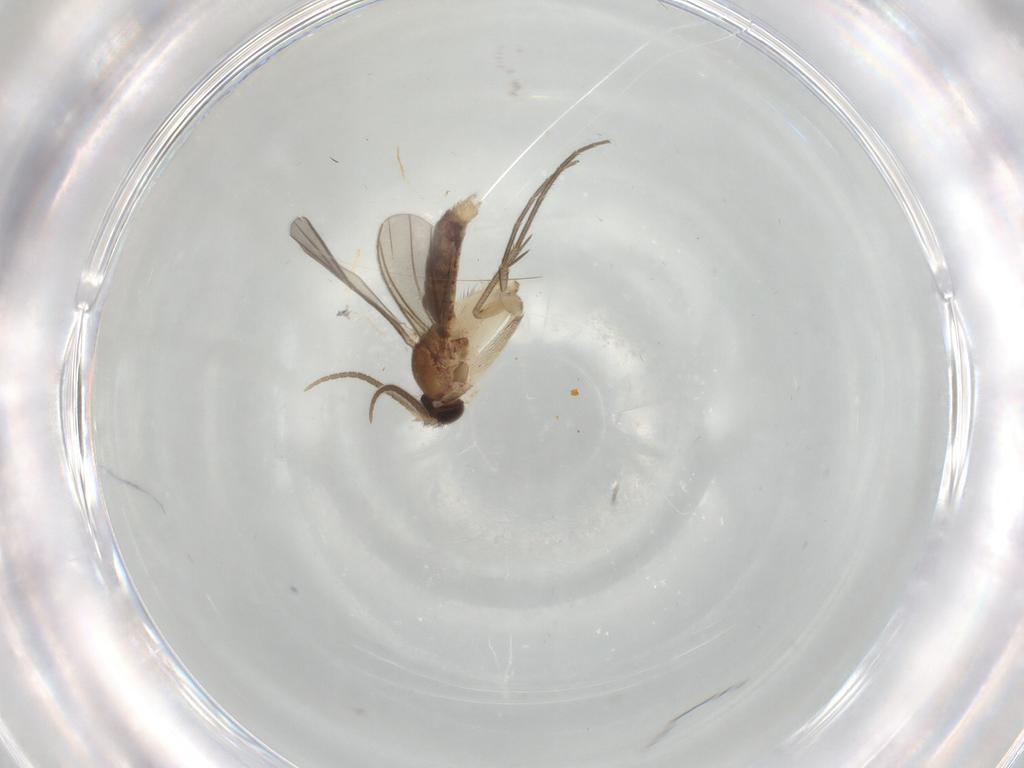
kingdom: Animalia
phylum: Arthropoda
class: Insecta
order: Diptera
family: Mycetophilidae
